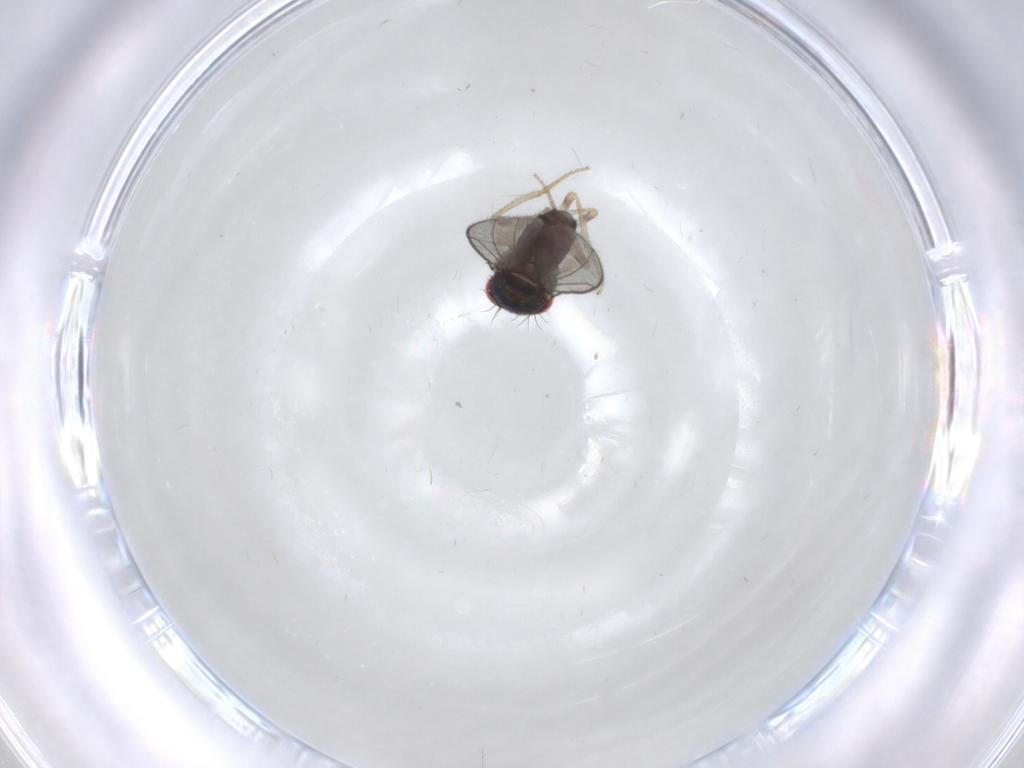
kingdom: Animalia
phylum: Arthropoda
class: Insecta
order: Diptera
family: Drosophilidae
